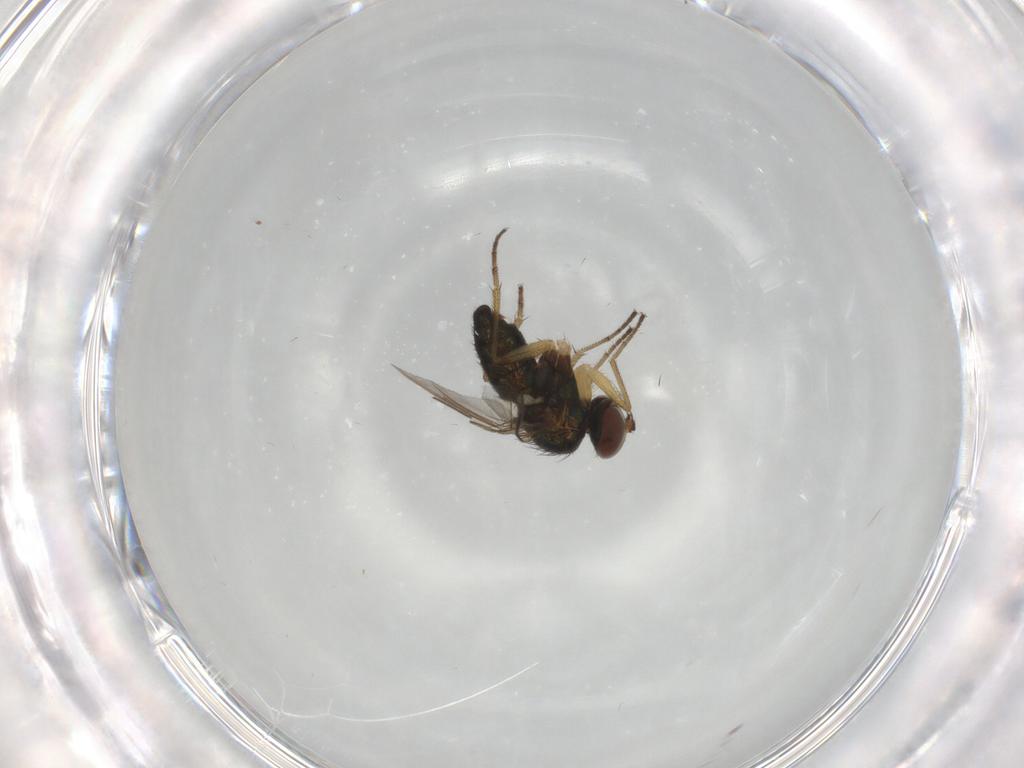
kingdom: Animalia
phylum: Arthropoda
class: Insecta
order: Diptera
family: Dolichopodidae
